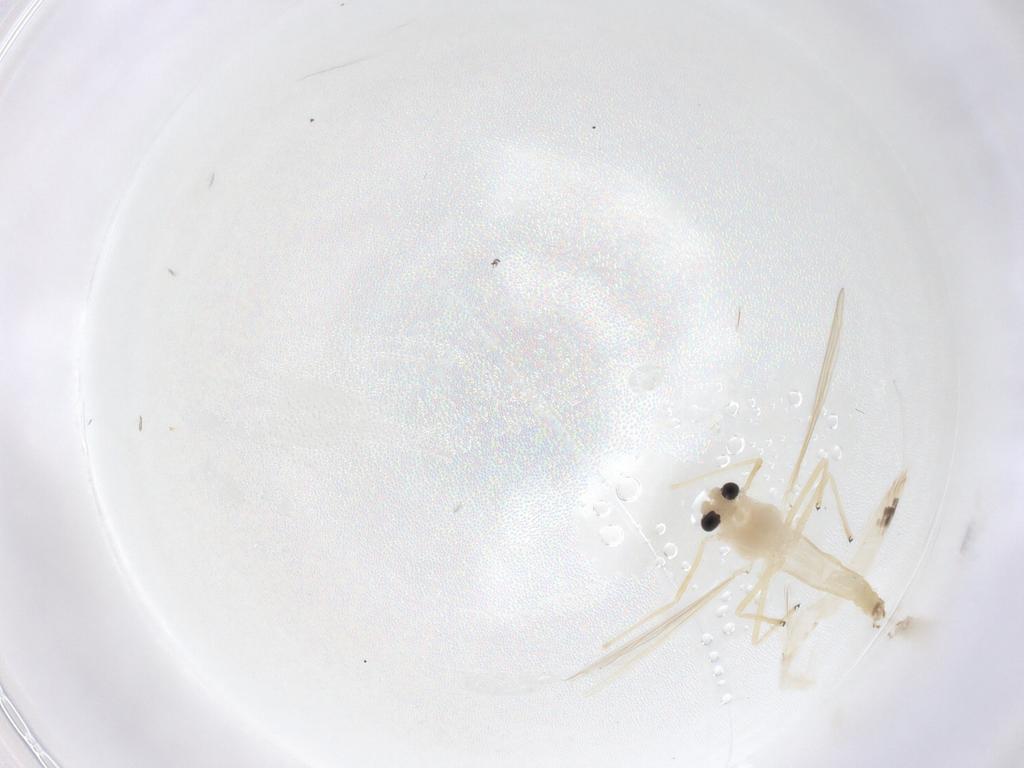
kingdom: Animalia
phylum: Arthropoda
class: Insecta
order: Diptera
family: Chironomidae
